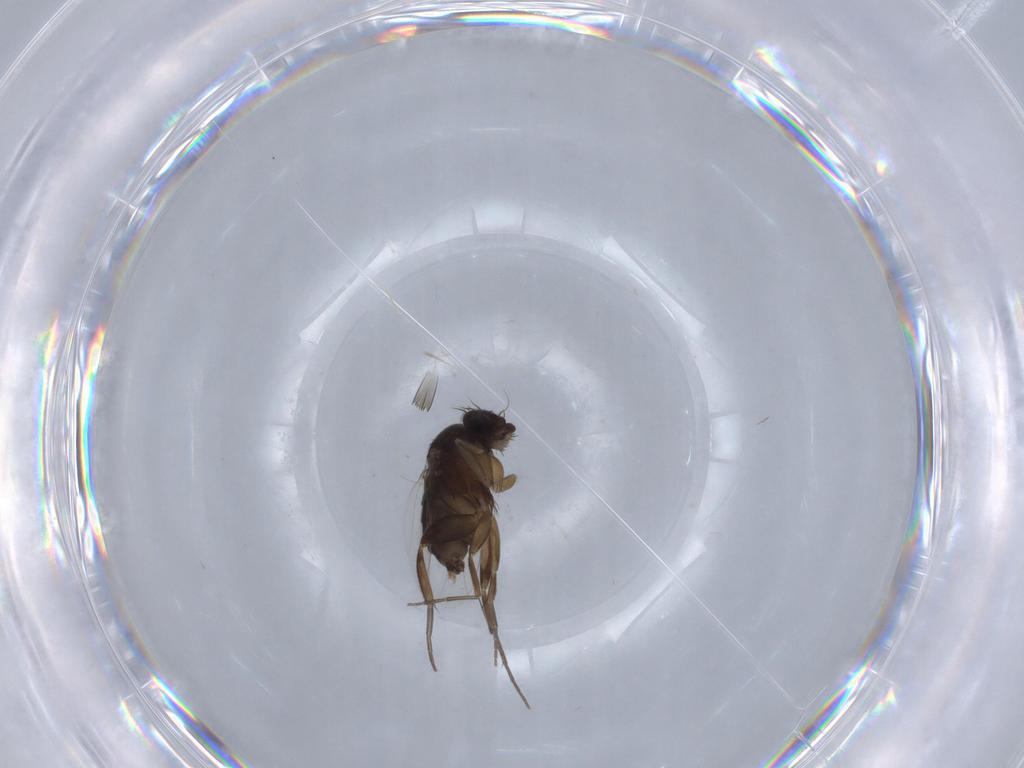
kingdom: Animalia
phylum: Arthropoda
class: Insecta
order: Diptera
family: Phoridae
